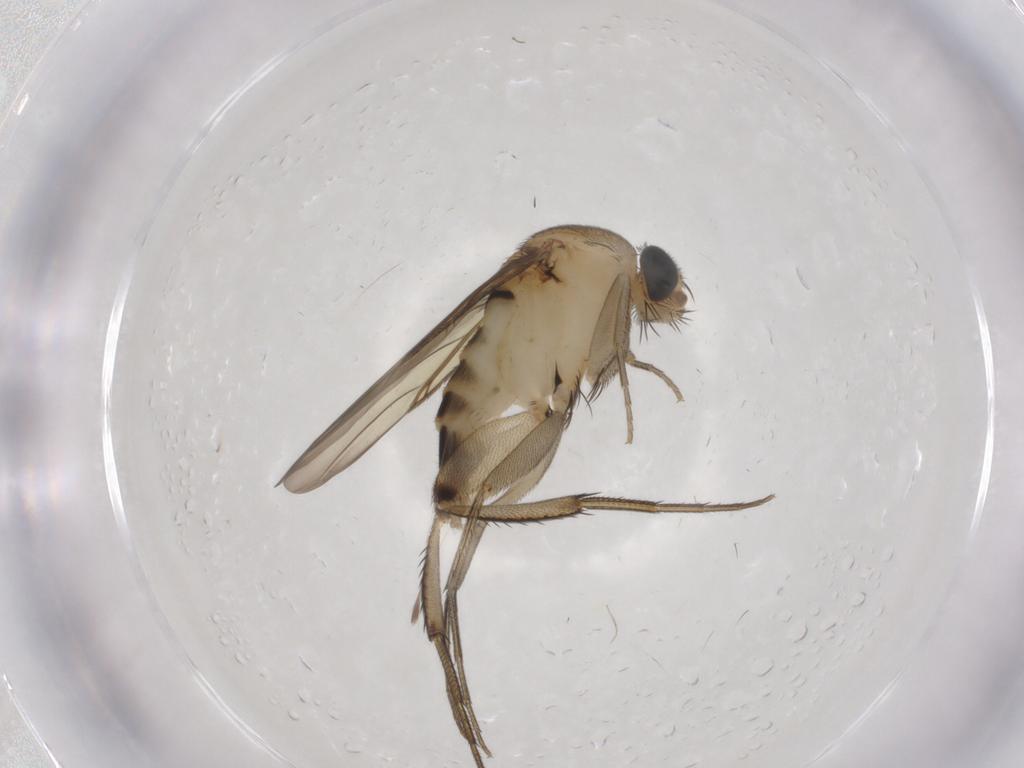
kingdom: Animalia
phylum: Arthropoda
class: Insecta
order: Diptera
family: Phoridae
